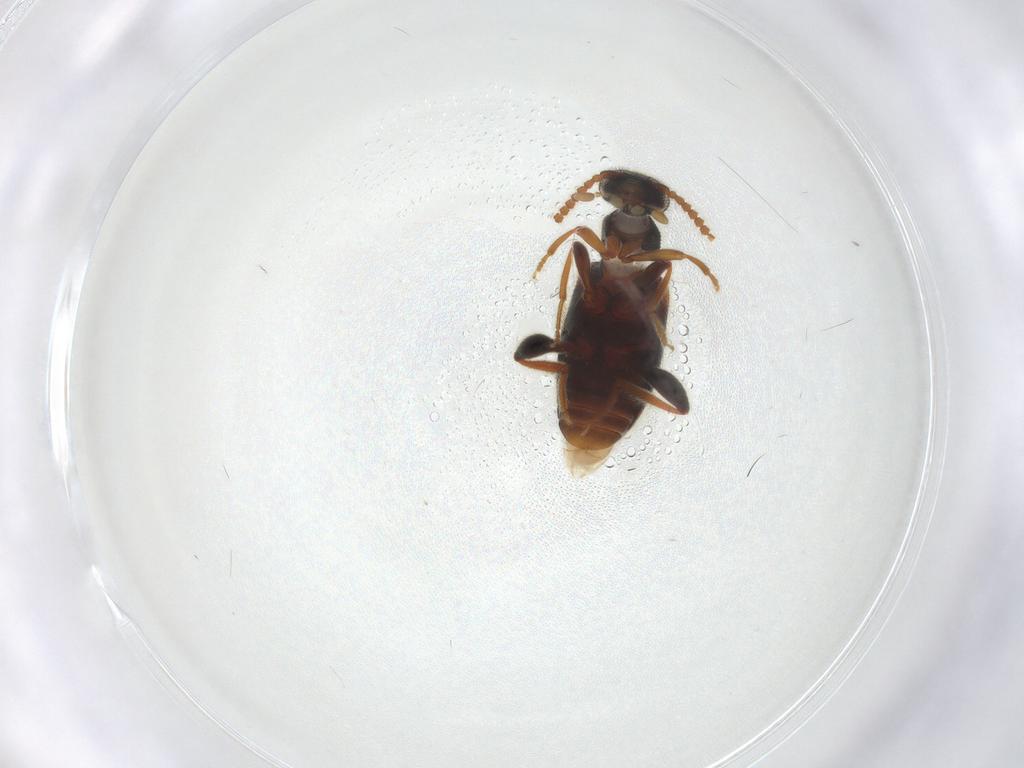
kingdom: Animalia
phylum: Arthropoda
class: Insecta
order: Coleoptera
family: Aderidae
